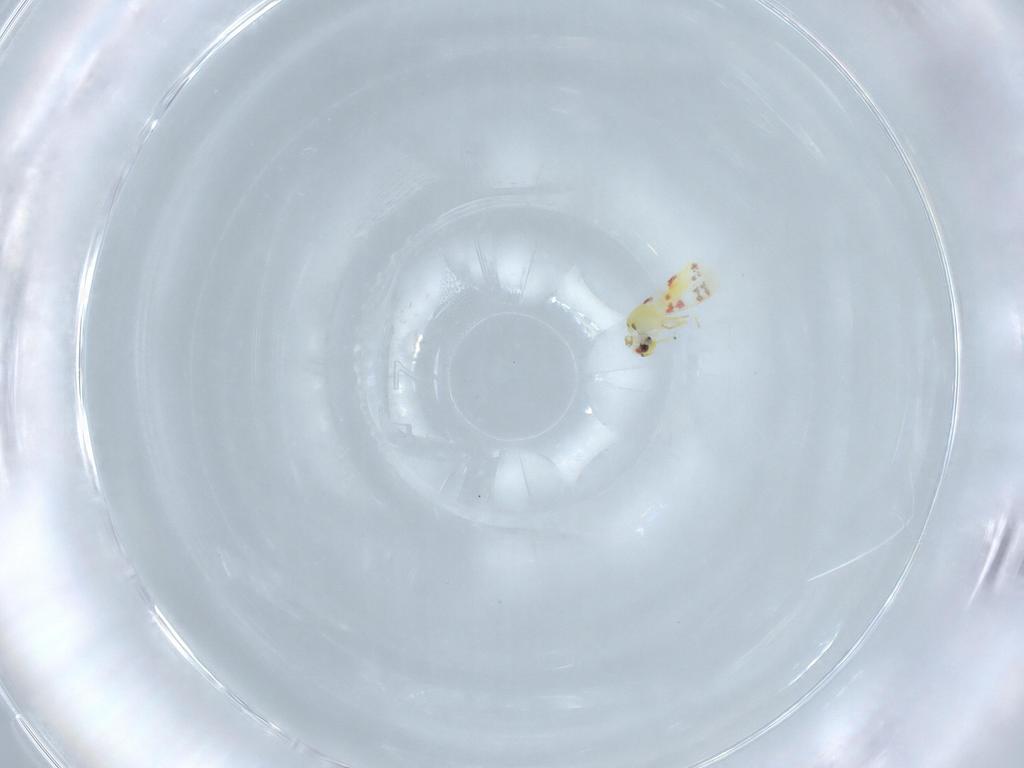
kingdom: Animalia
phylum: Arthropoda
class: Insecta
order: Hemiptera
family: Aleyrodidae
